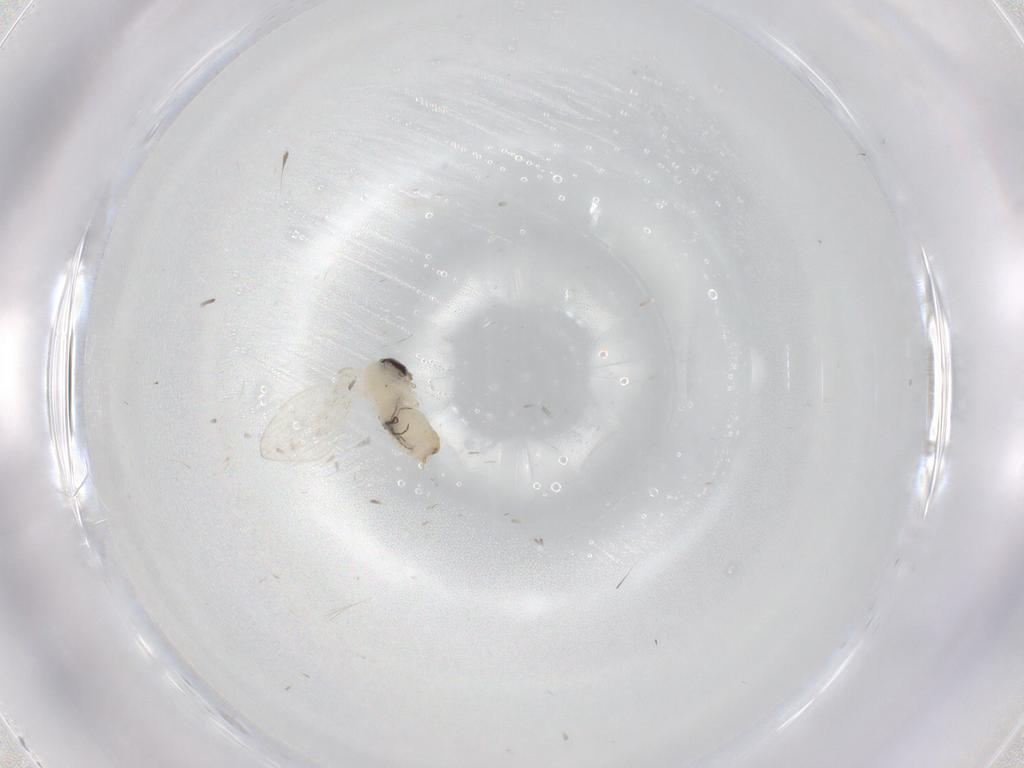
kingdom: Animalia
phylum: Arthropoda
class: Insecta
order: Diptera
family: Psychodidae
